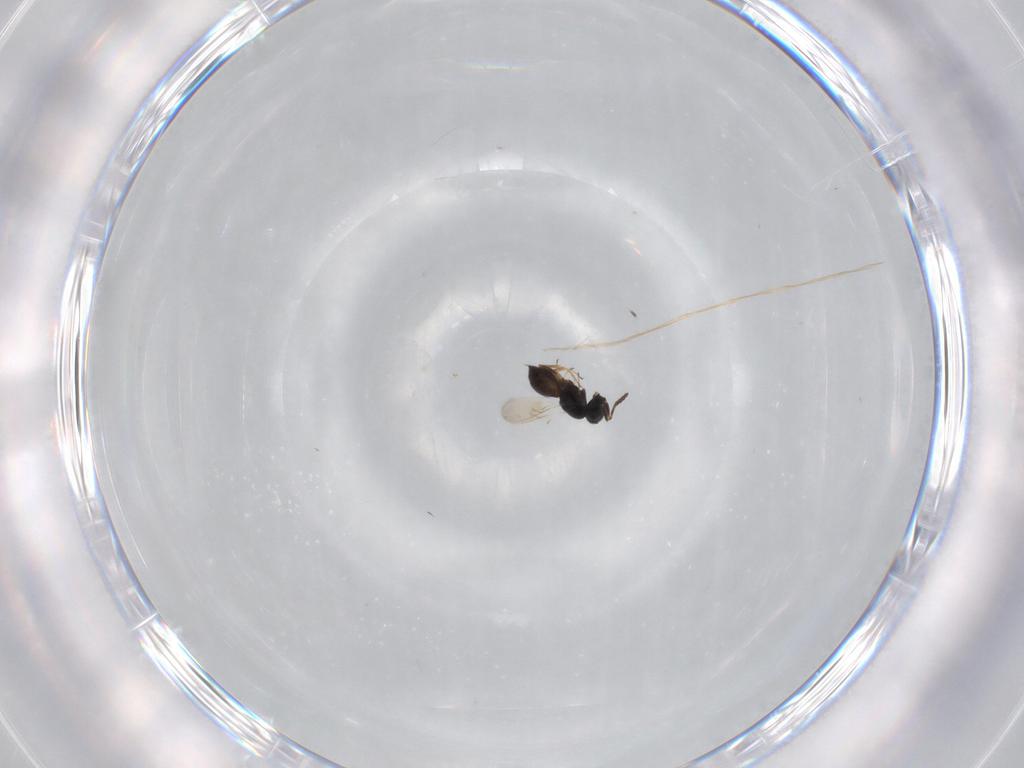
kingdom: Animalia
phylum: Arthropoda
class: Insecta
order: Hymenoptera
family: Scelionidae
